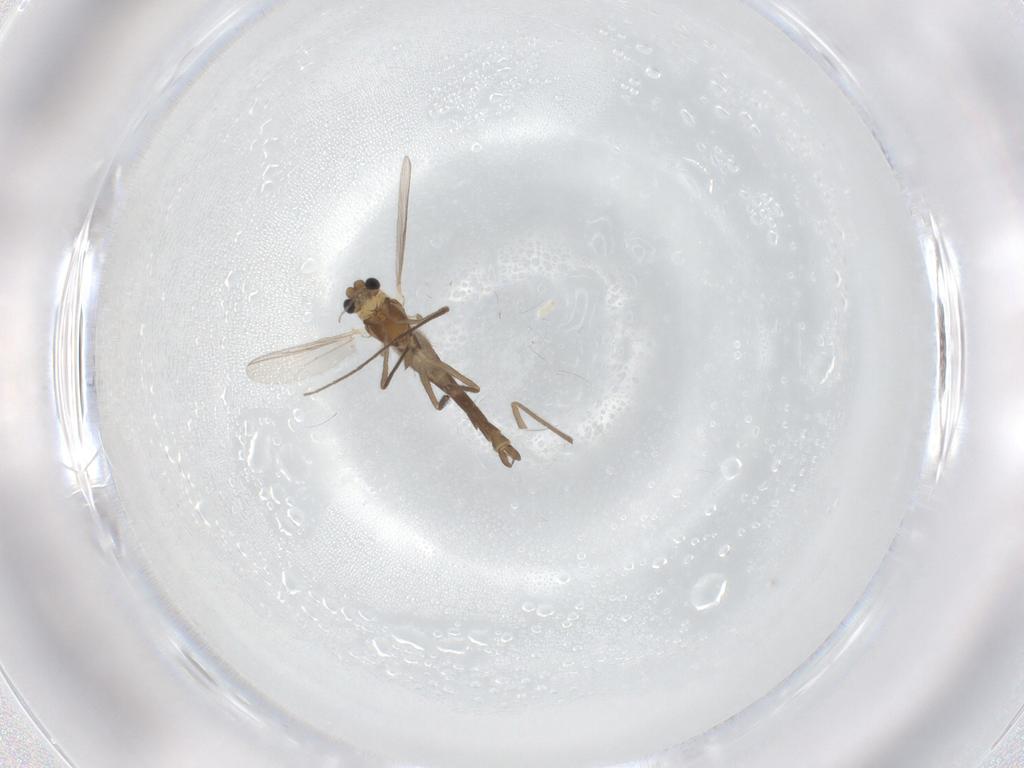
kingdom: Animalia
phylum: Arthropoda
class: Insecta
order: Diptera
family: Chironomidae
